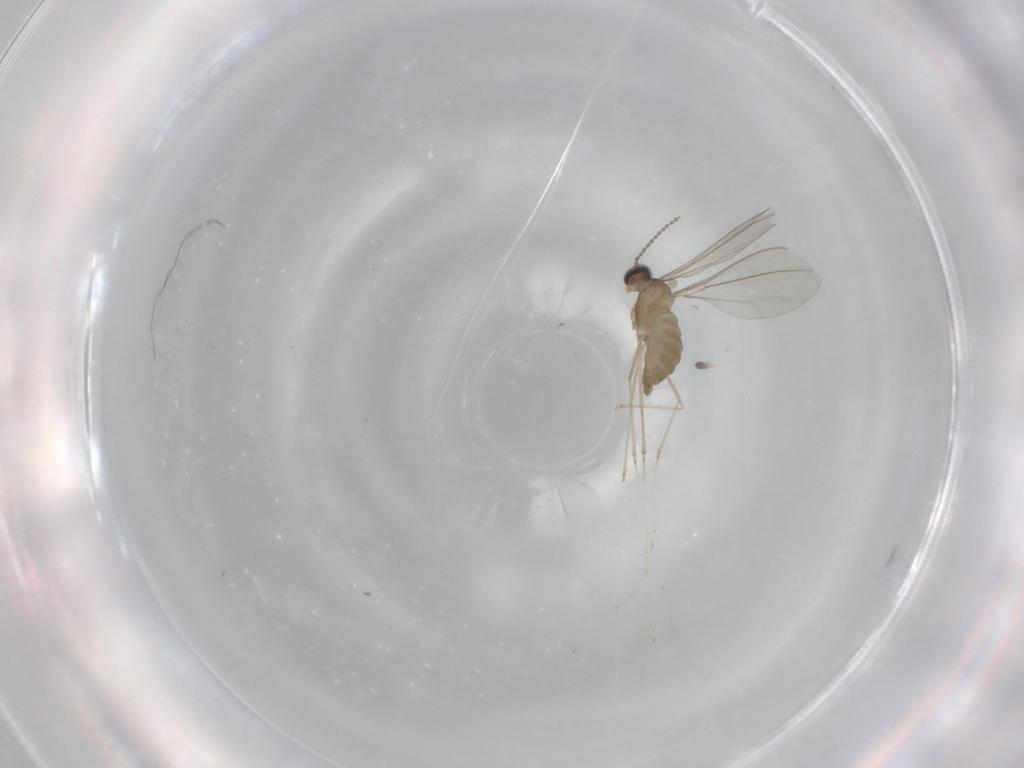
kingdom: Animalia
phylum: Arthropoda
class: Insecta
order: Diptera
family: Cecidomyiidae
